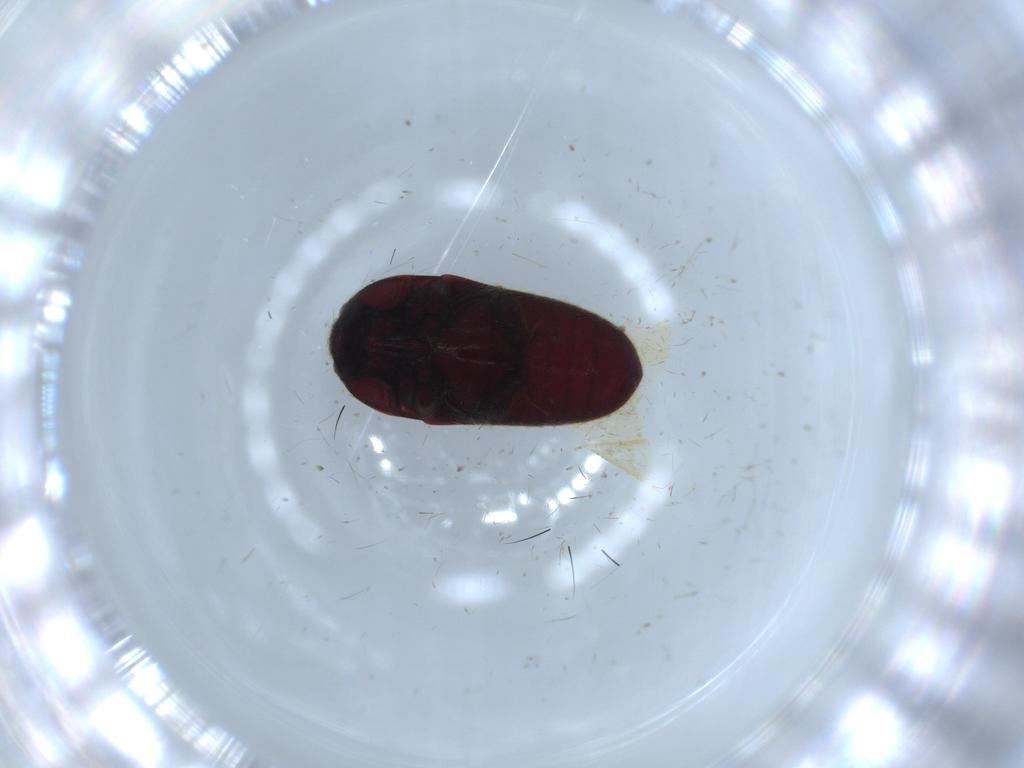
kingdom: Animalia
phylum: Arthropoda
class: Insecta
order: Coleoptera
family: Throscidae
